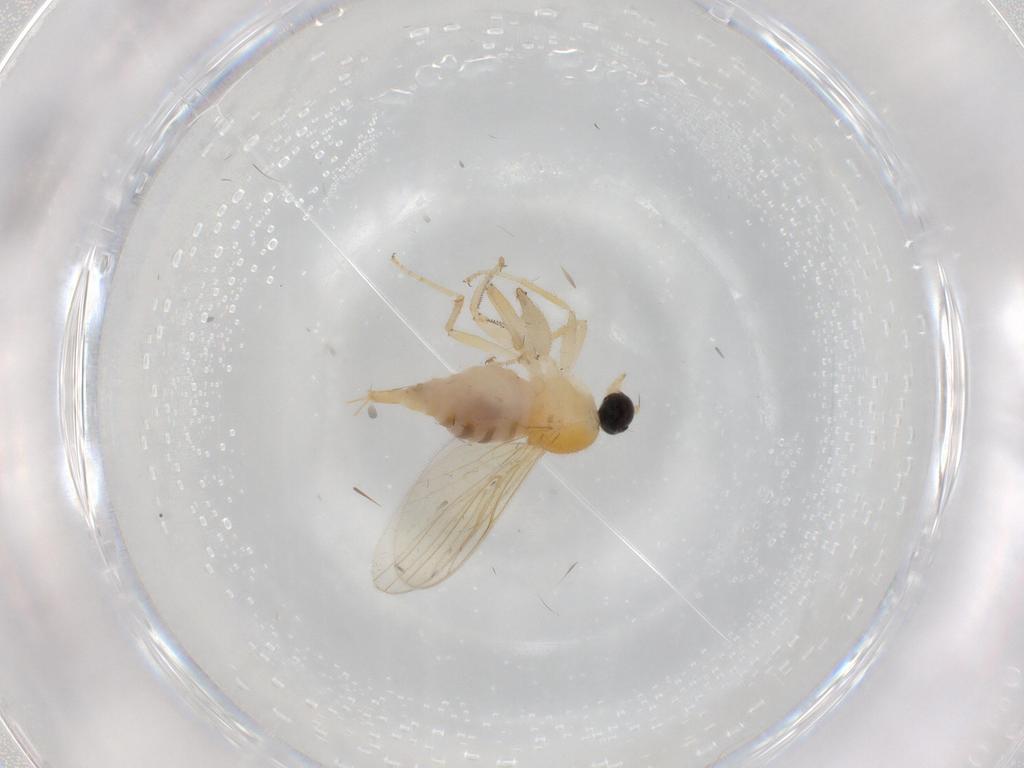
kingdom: Animalia
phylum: Arthropoda
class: Insecta
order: Diptera
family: Chironomidae
